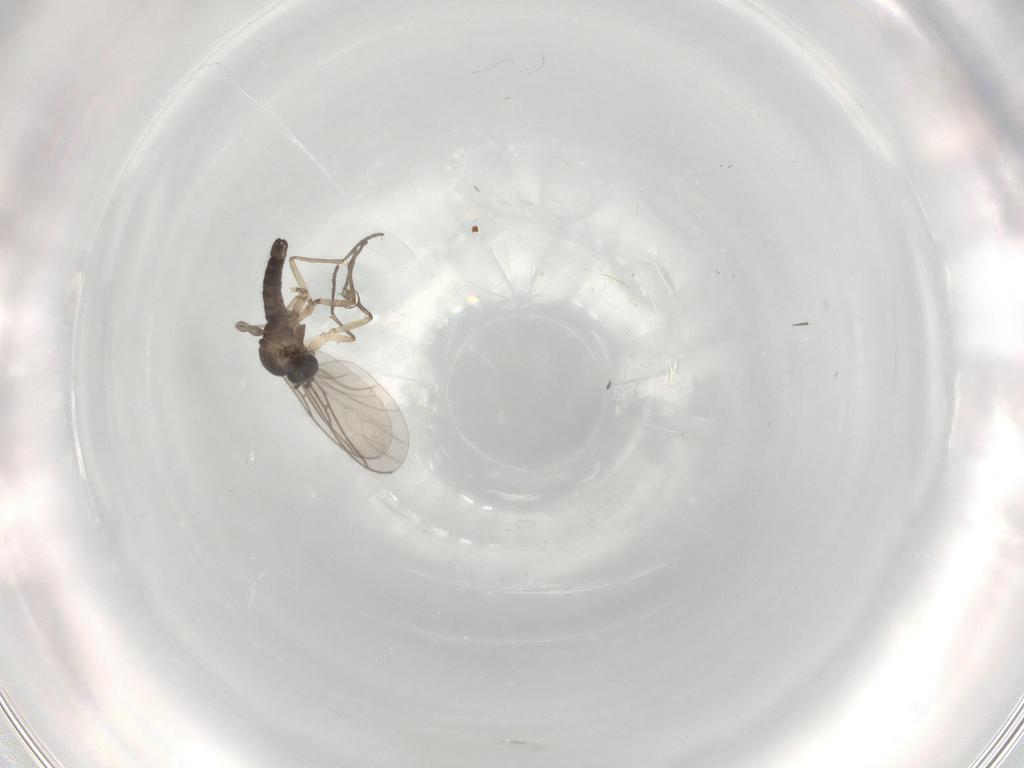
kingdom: Animalia
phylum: Arthropoda
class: Insecta
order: Diptera
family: Sciaridae
